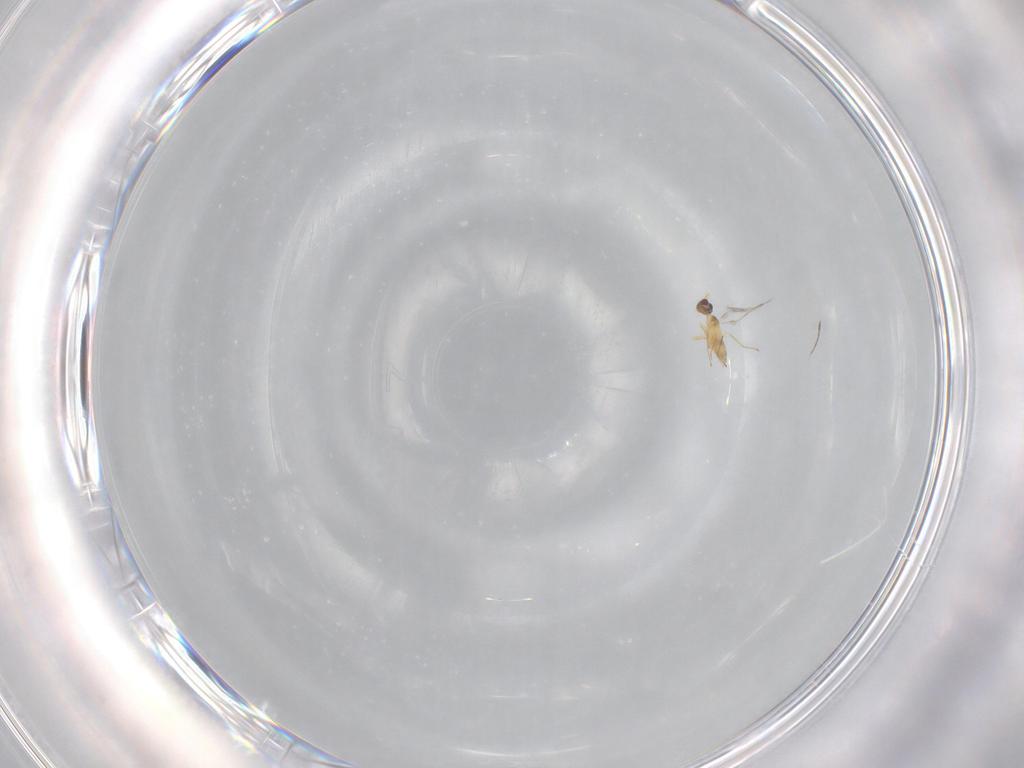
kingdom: Animalia
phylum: Arthropoda
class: Insecta
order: Hymenoptera
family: Mymaridae
